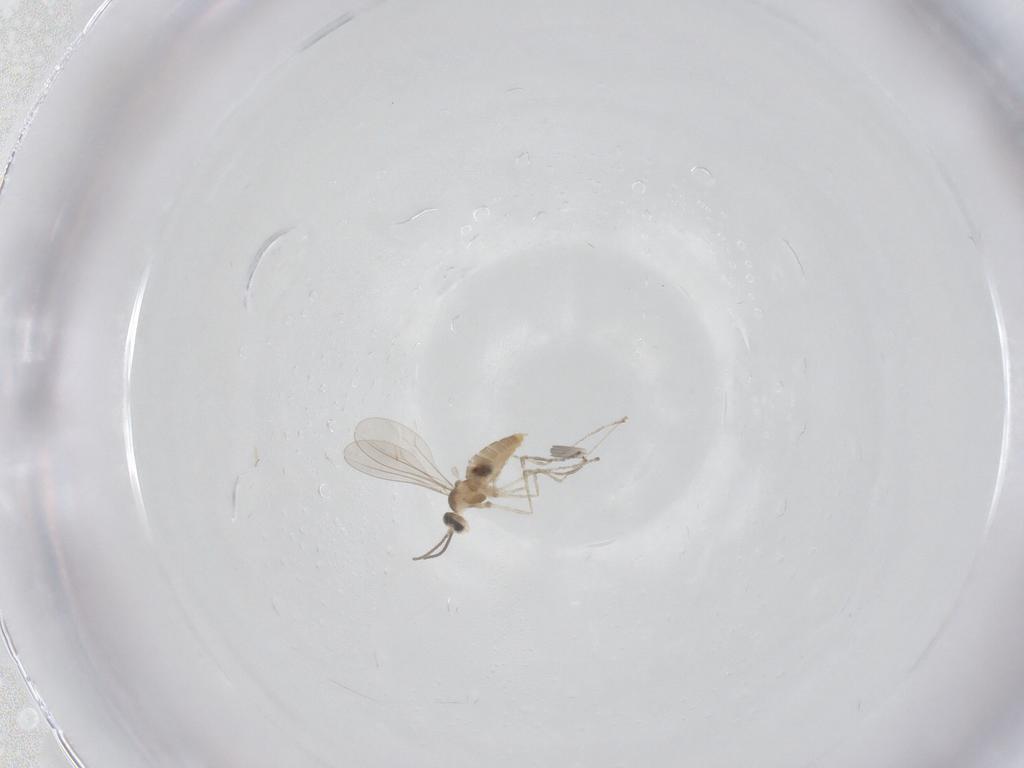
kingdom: Animalia
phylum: Arthropoda
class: Insecta
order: Diptera
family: Cecidomyiidae
